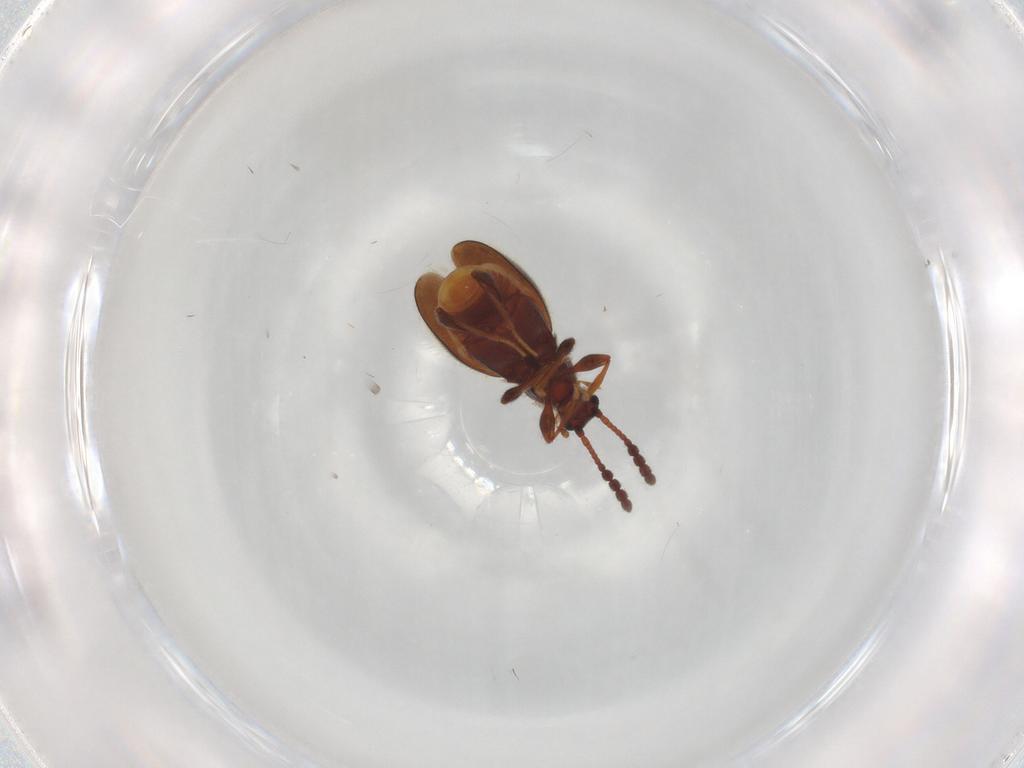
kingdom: Animalia
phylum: Arthropoda
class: Insecta
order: Coleoptera
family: Staphylinidae
